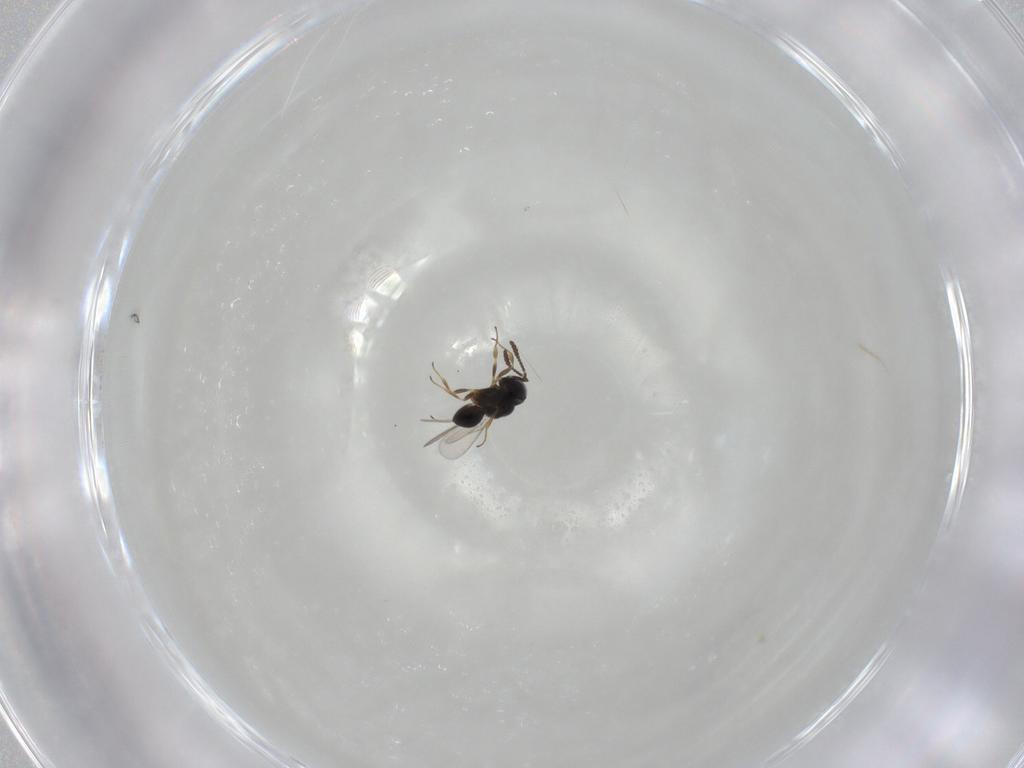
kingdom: Animalia
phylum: Arthropoda
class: Insecta
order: Hymenoptera
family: Scelionidae
